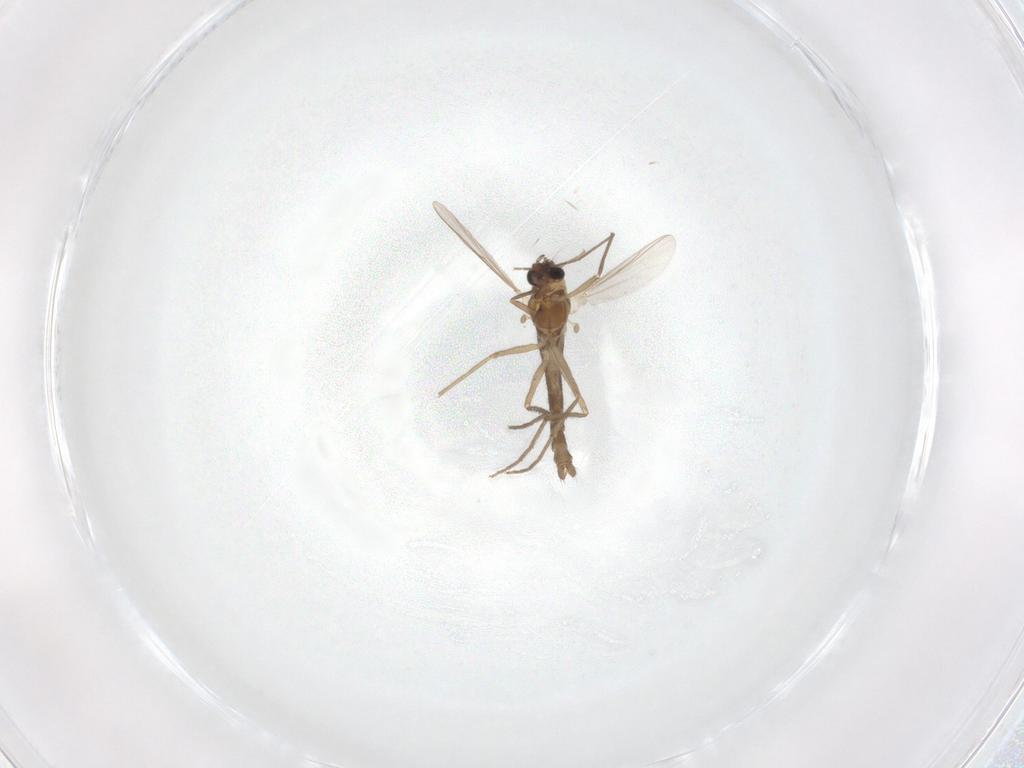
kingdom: Animalia
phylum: Arthropoda
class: Insecta
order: Diptera
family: Chironomidae
